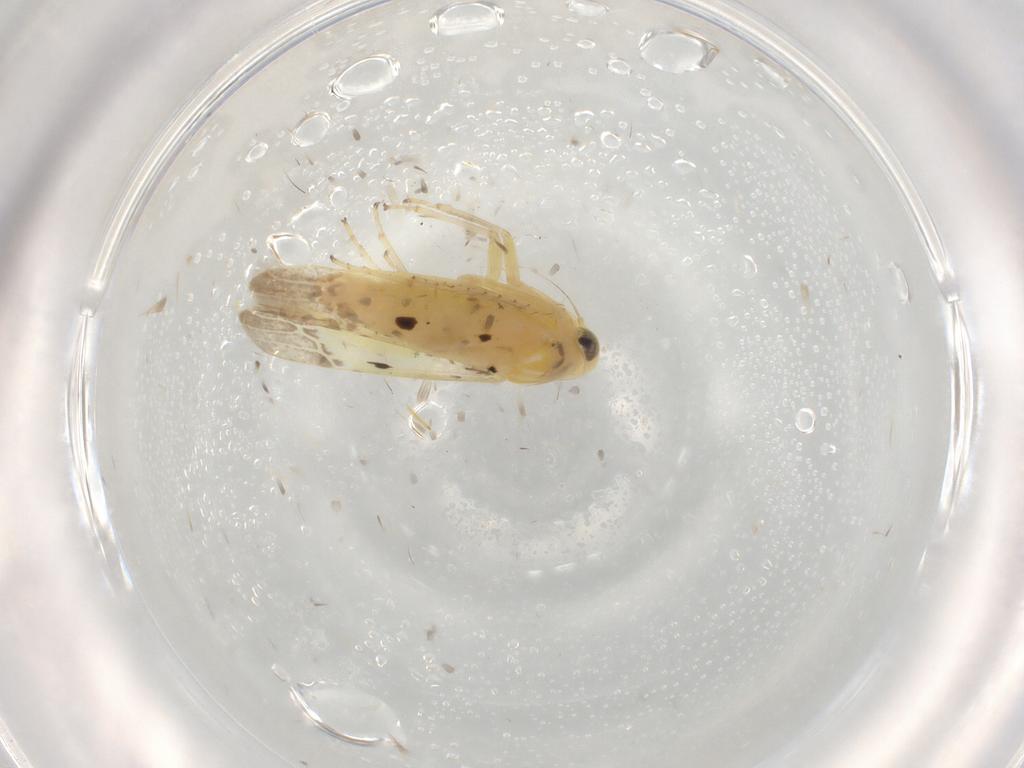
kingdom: Animalia
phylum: Arthropoda
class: Insecta
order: Hemiptera
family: Cicadellidae
